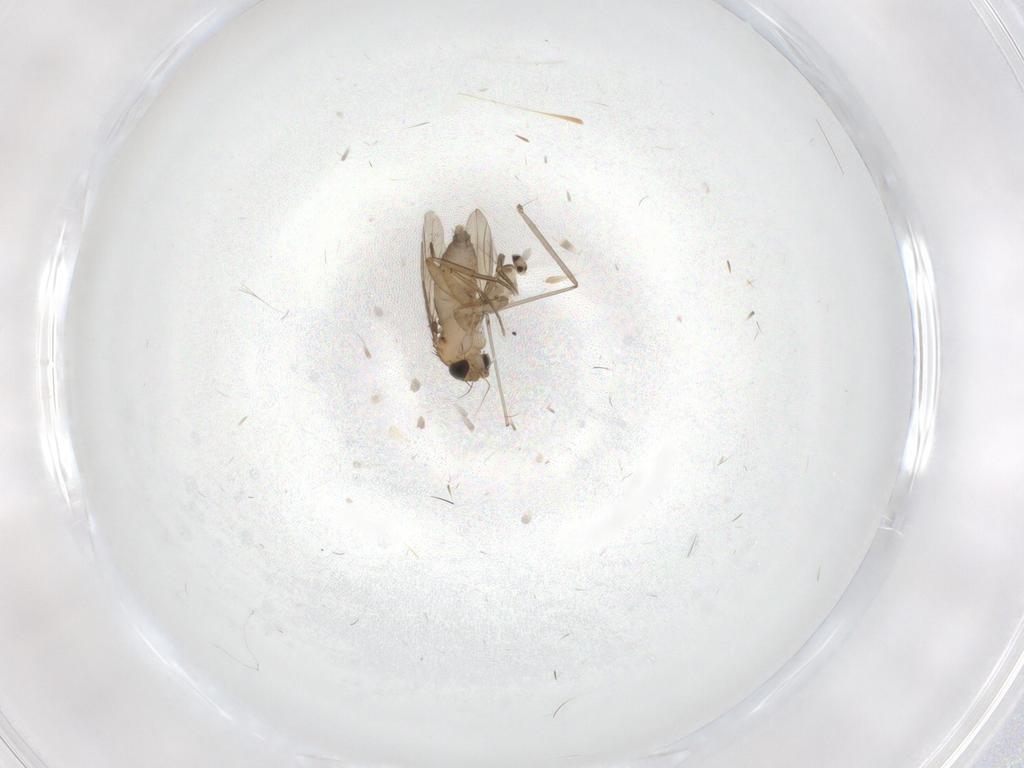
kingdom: Animalia
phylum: Arthropoda
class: Insecta
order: Diptera
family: Phoridae
